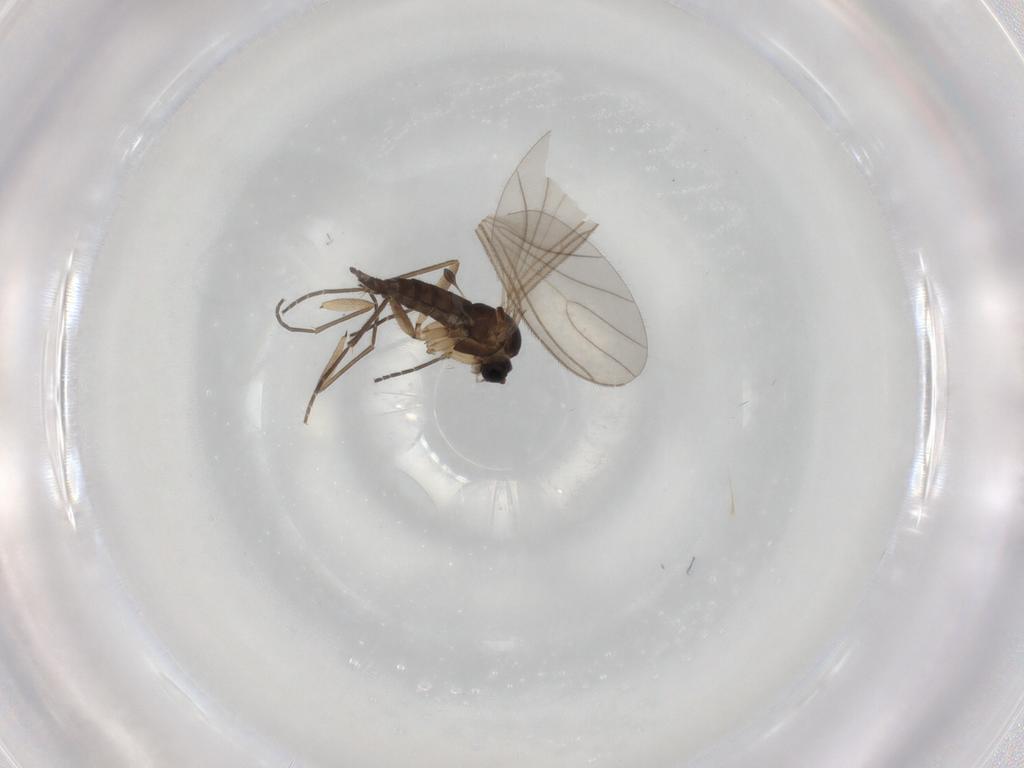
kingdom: Animalia
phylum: Arthropoda
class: Insecta
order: Diptera
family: Sciaridae
